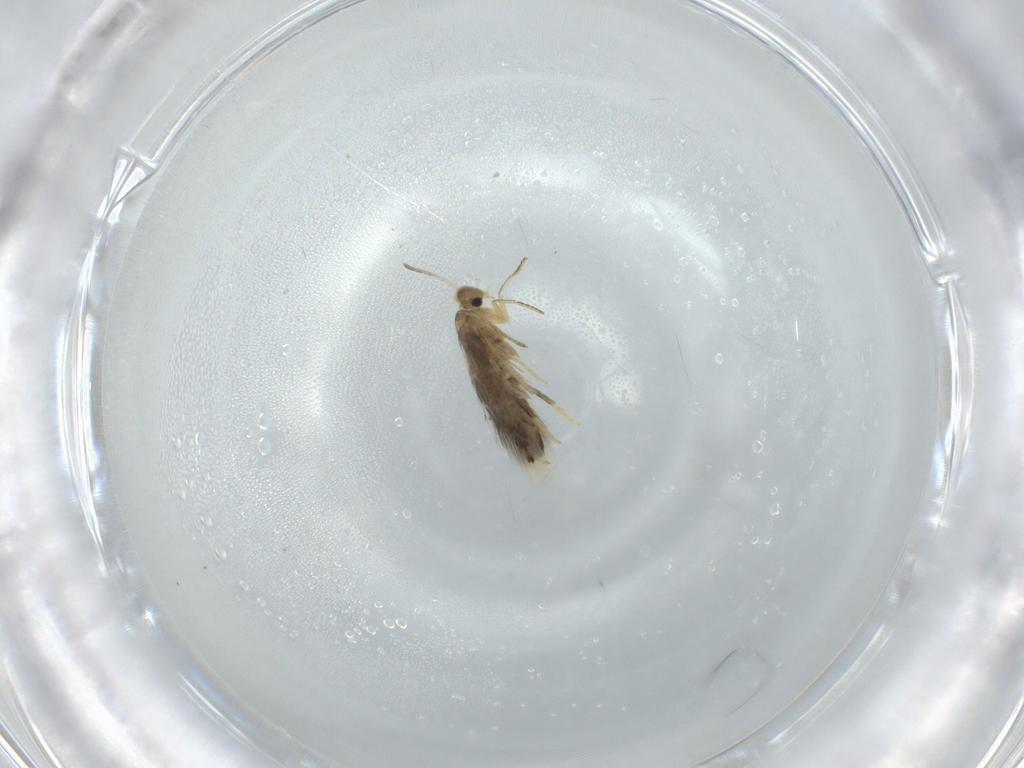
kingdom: Animalia
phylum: Arthropoda
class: Insecta
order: Lepidoptera
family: Heliozelidae
